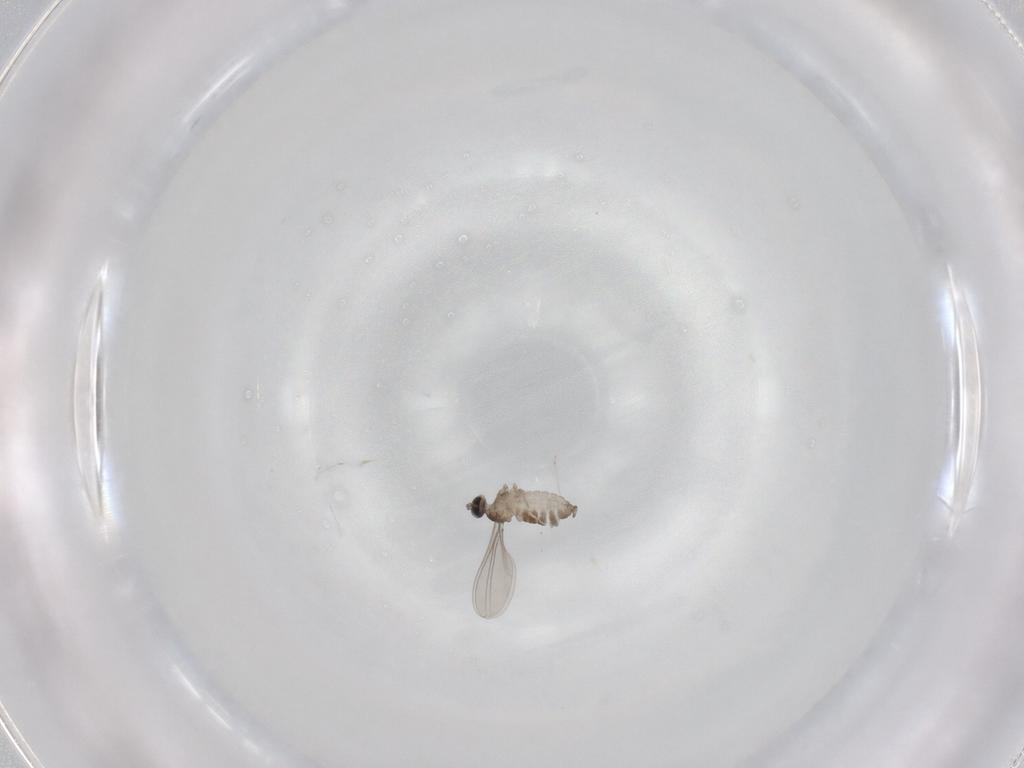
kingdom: Animalia
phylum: Arthropoda
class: Insecta
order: Diptera
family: Cecidomyiidae
